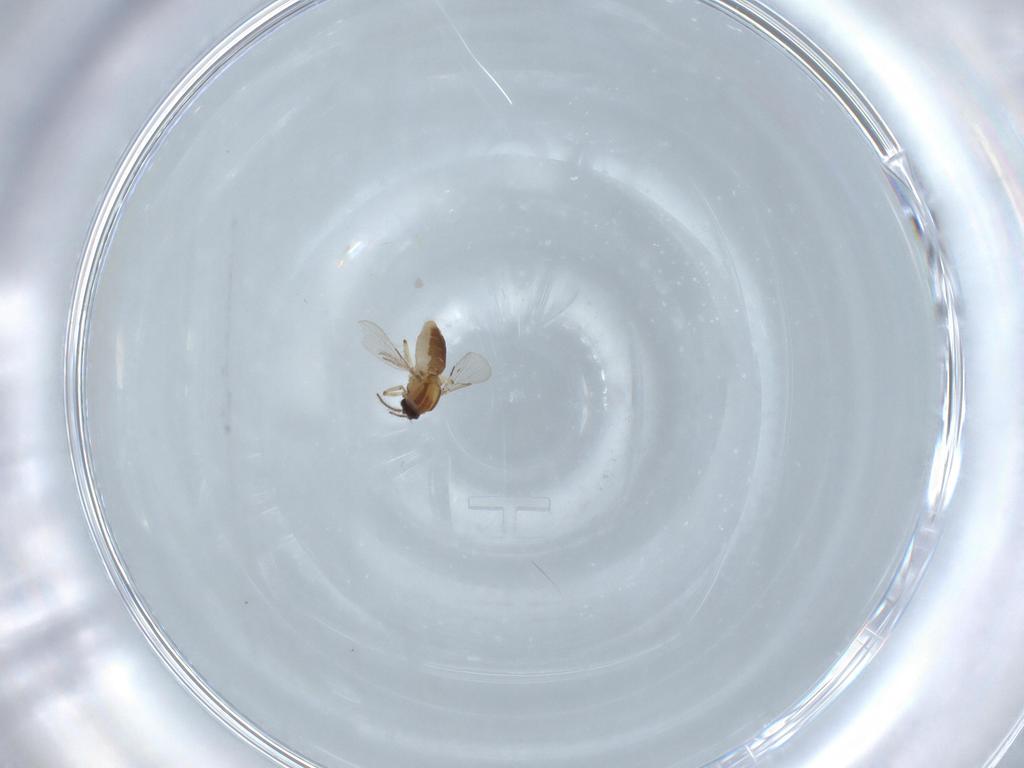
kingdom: Animalia
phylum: Arthropoda
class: Insecta
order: Diptera
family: Ceratopogonidae
